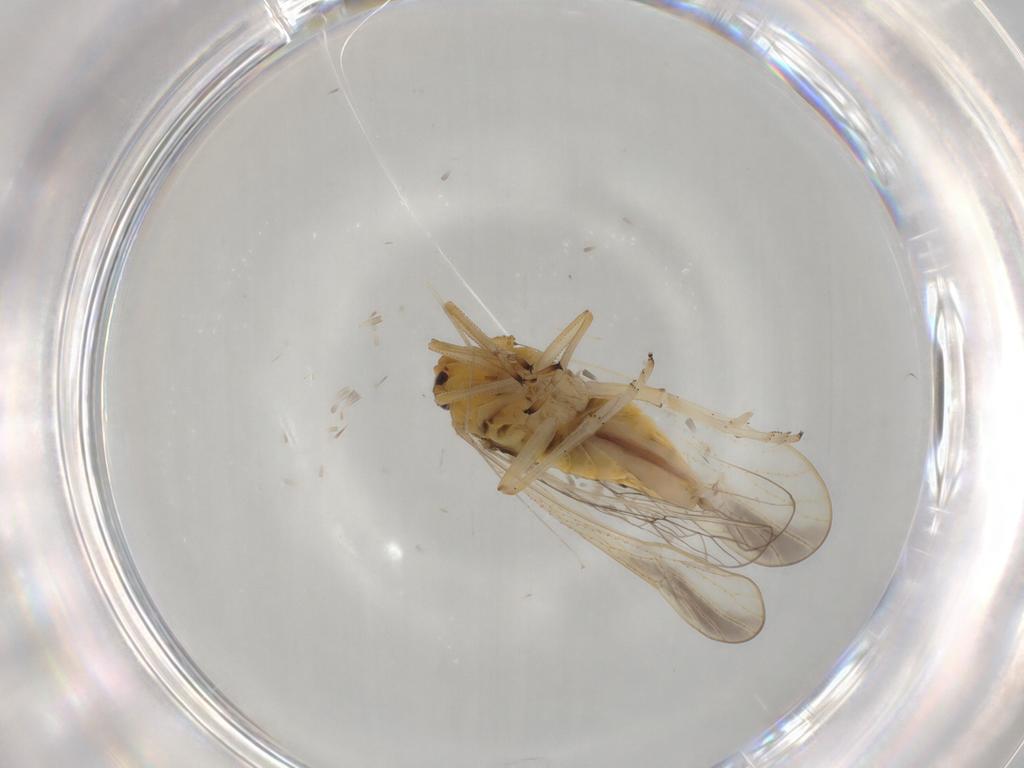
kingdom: Animalia
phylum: Arthropoda
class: Insecta
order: Hemiptera
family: Delphacidae
